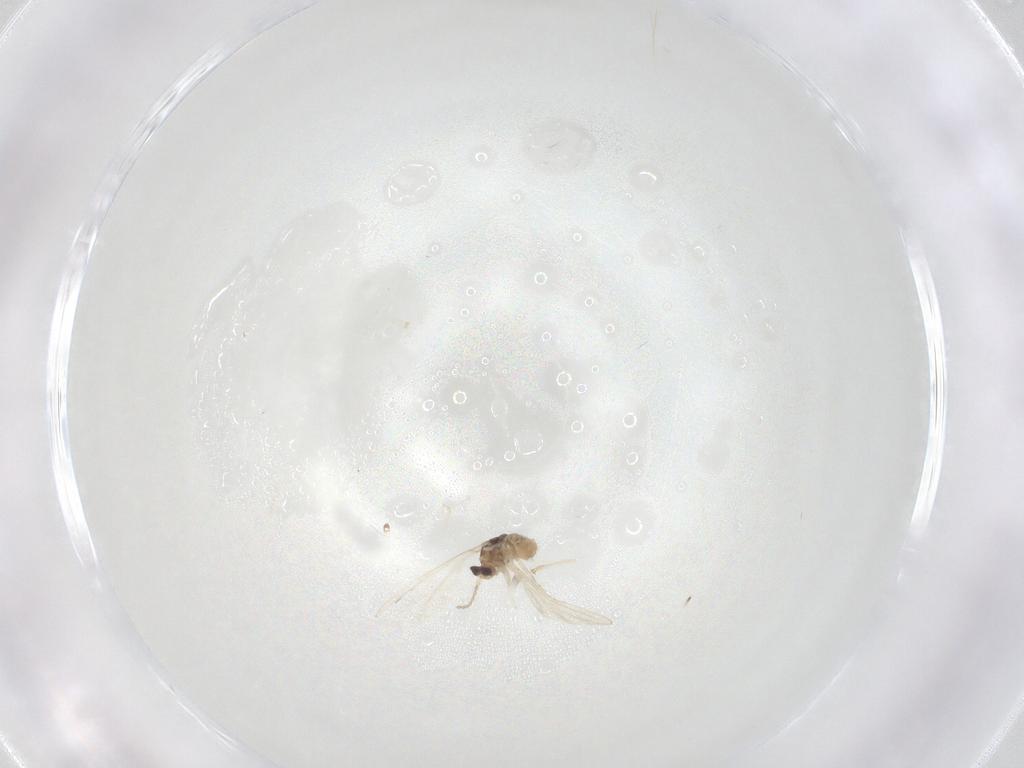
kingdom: Animalia
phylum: Arthropoda
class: Insecta
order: Diptera
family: Cecidomyiidae
